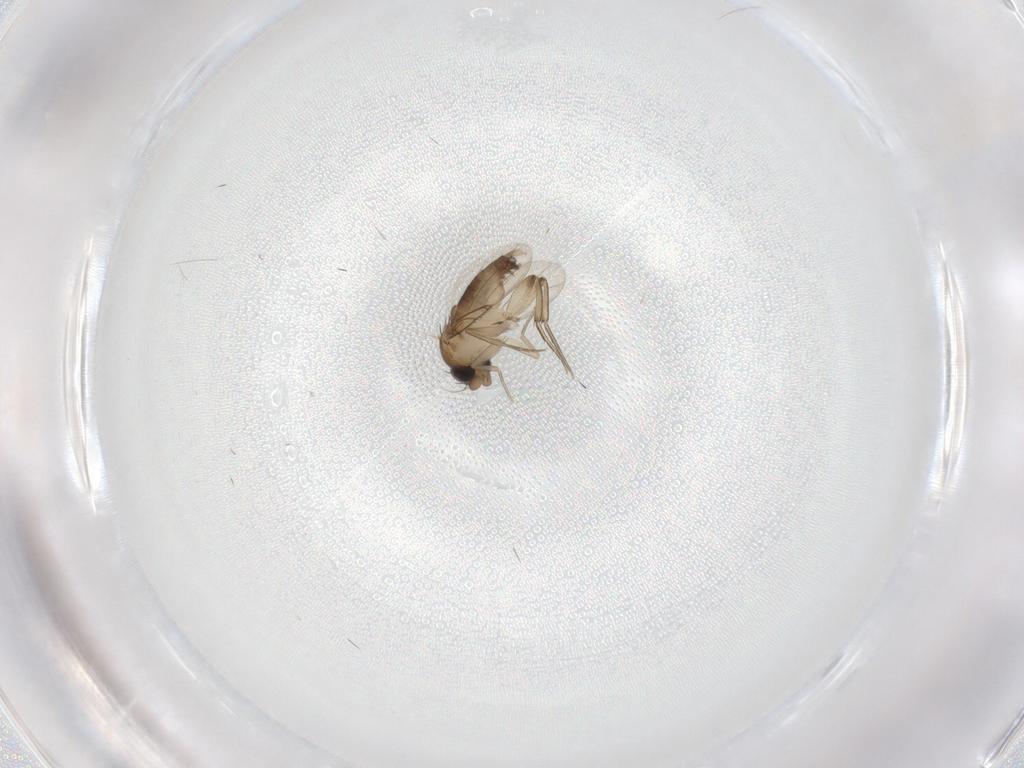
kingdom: Animalia
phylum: Arthropoda
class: Insecta
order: Diptera
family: Phoridae
